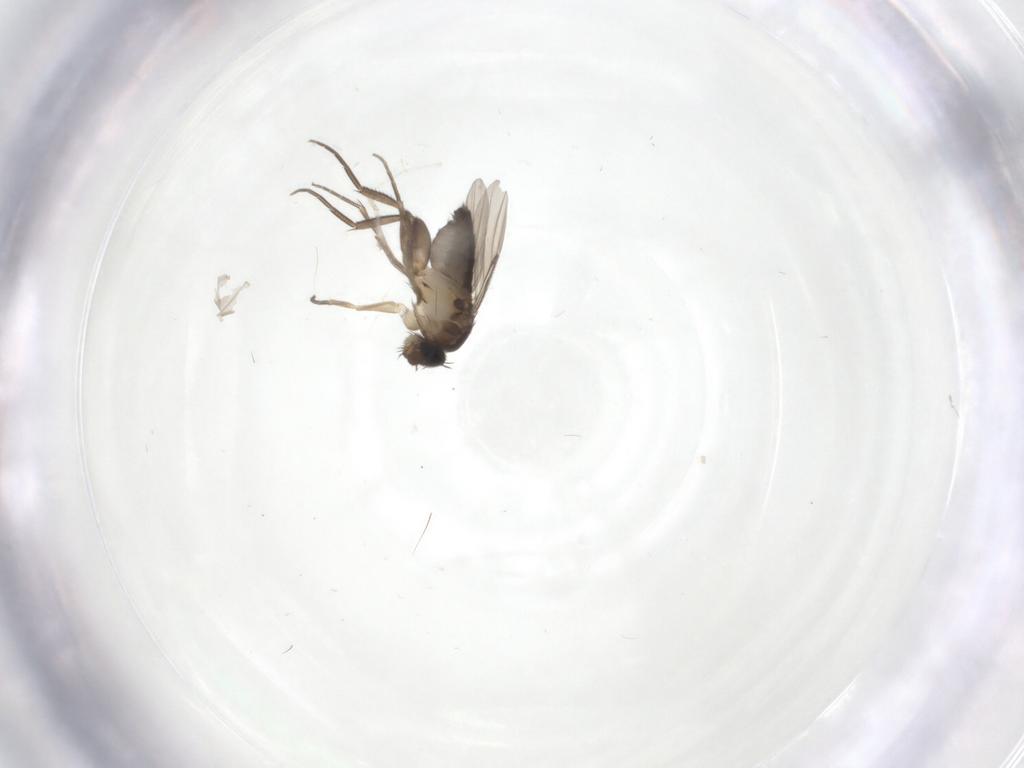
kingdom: Animalia
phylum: Arthropoda
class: Insecta
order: Diptera
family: Phoridae
